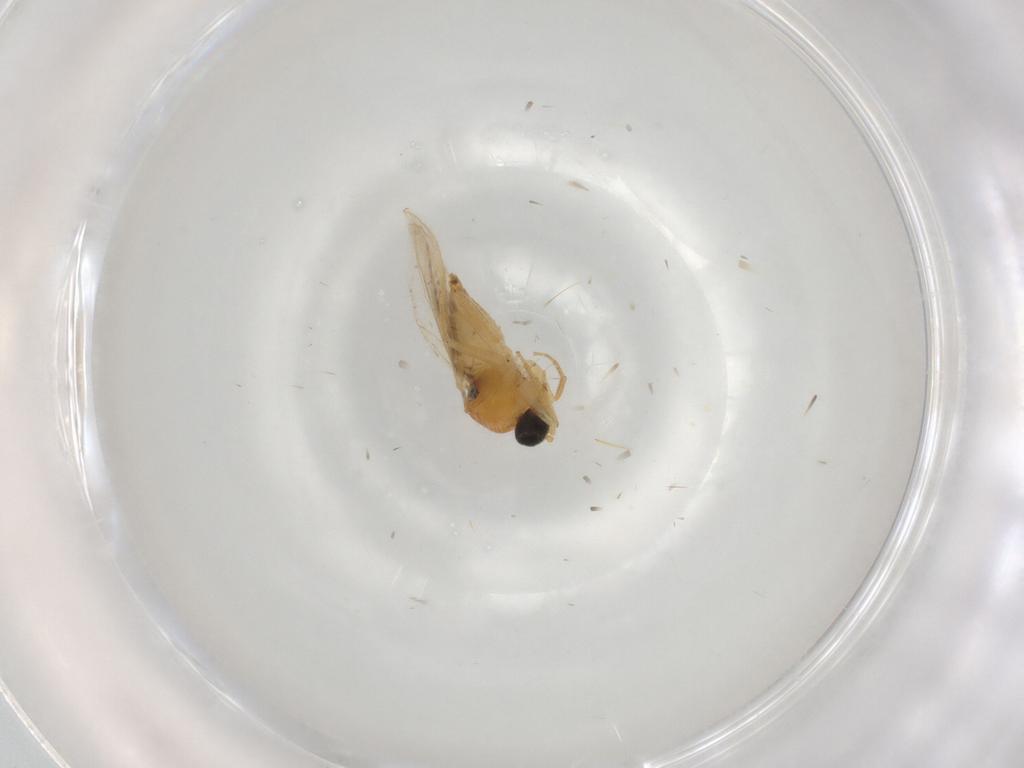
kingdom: Animalia
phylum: Arthropoda
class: Insecta
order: Diptera
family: Hybotidae
